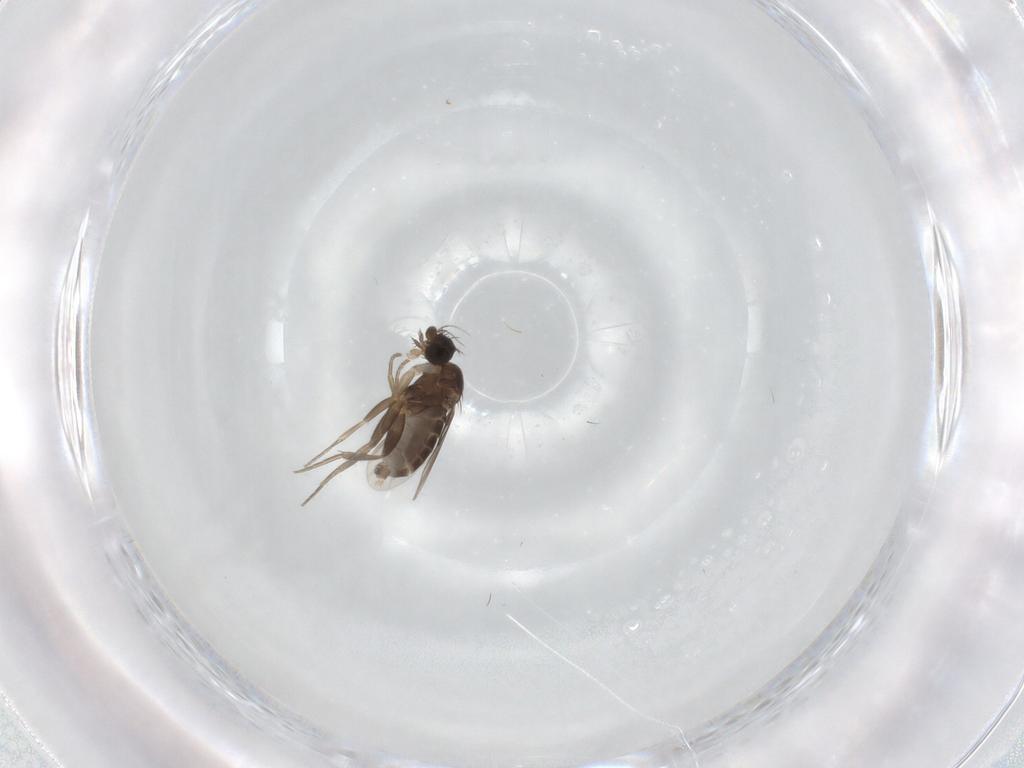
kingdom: Animalia
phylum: Arthropoda
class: Insecta
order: Diptera
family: Phoridae
